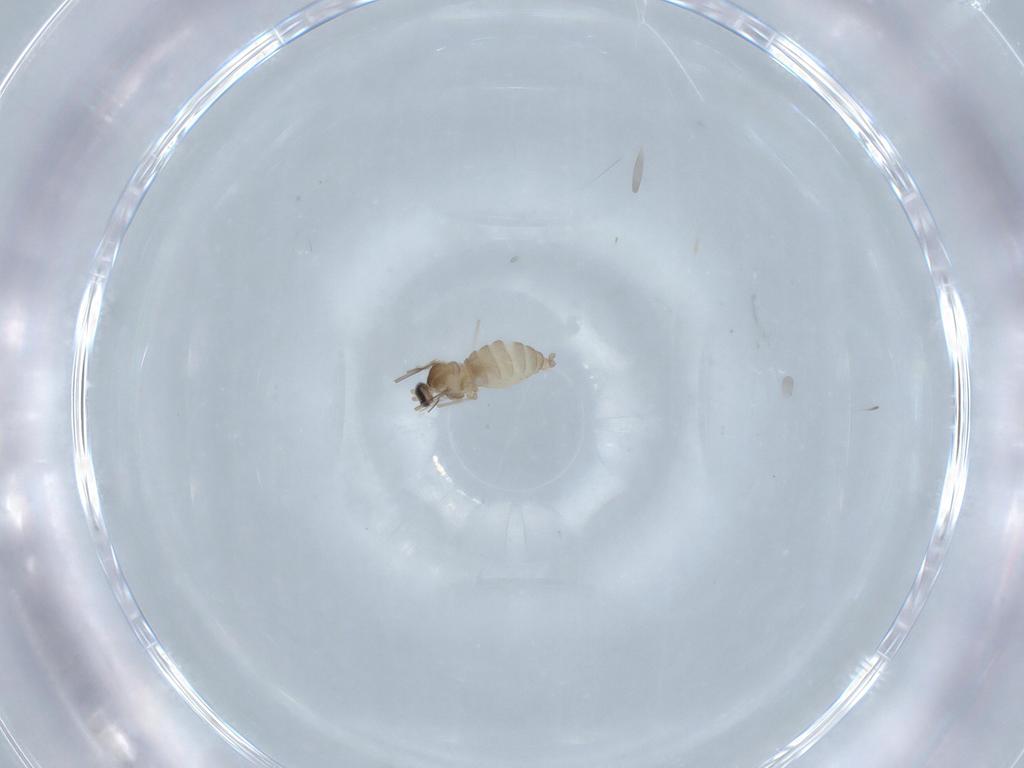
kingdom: Animalia
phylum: Arthropoda
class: Insecta
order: Diptera
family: Cecidomyiidae
